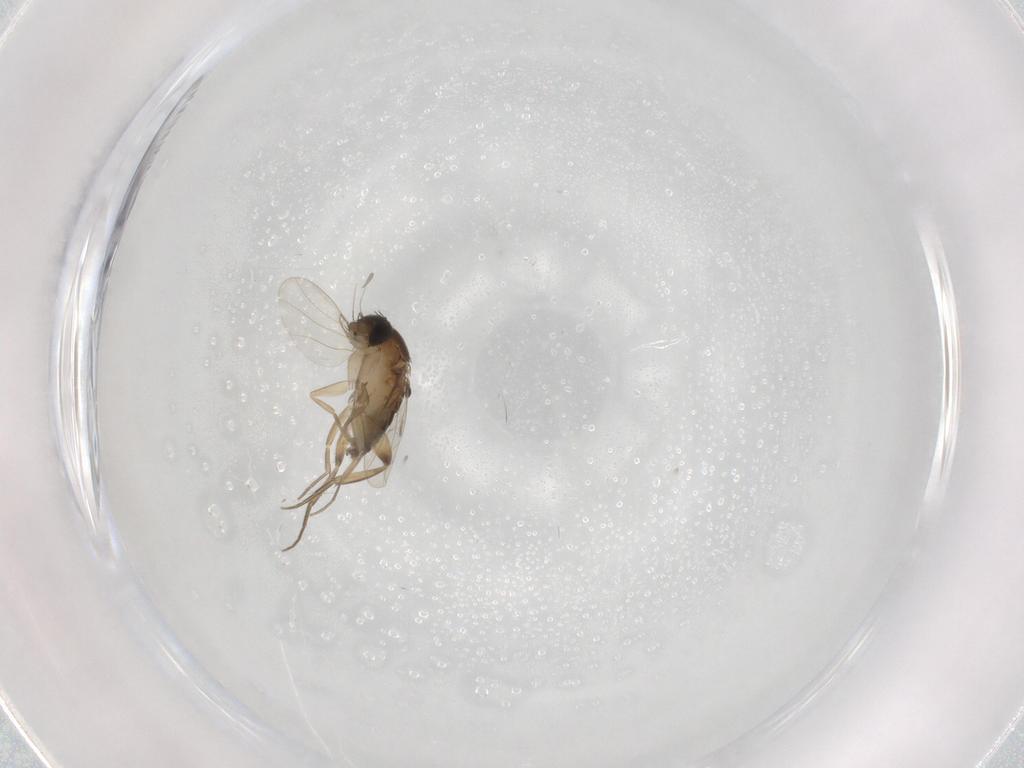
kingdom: Animalia
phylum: Arthropoda
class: Insecta
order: Diptera
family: Phoridae
